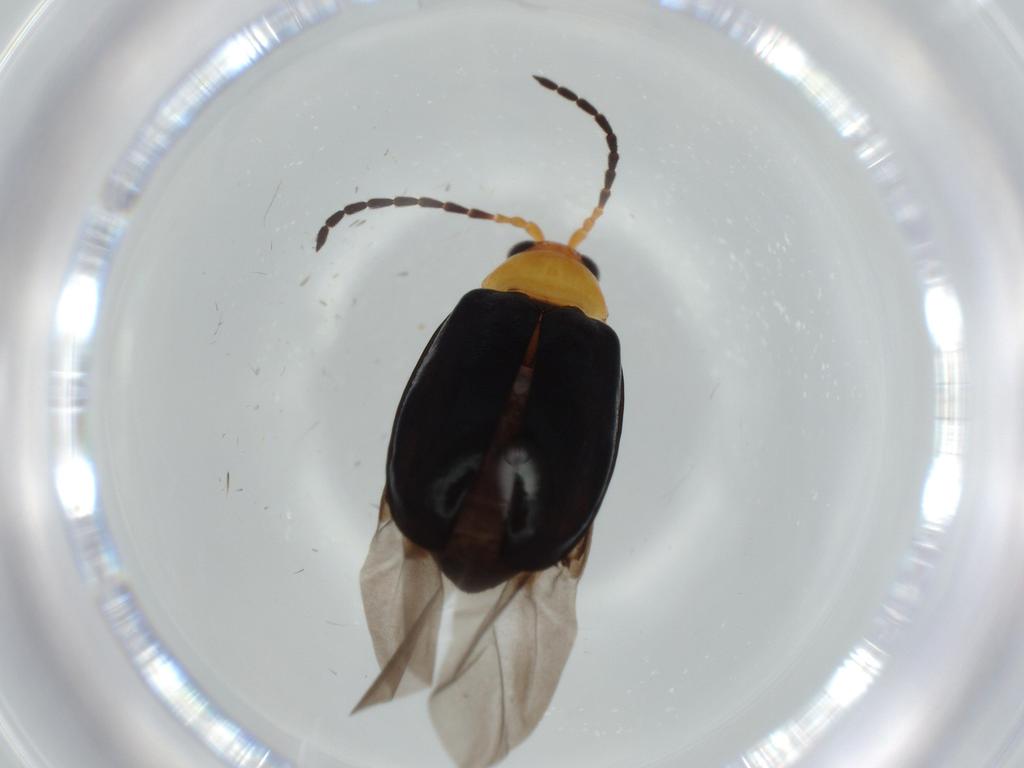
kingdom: Animalia
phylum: Arthropoda
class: Insecta
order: Coleoptera
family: Chrysomelidae
